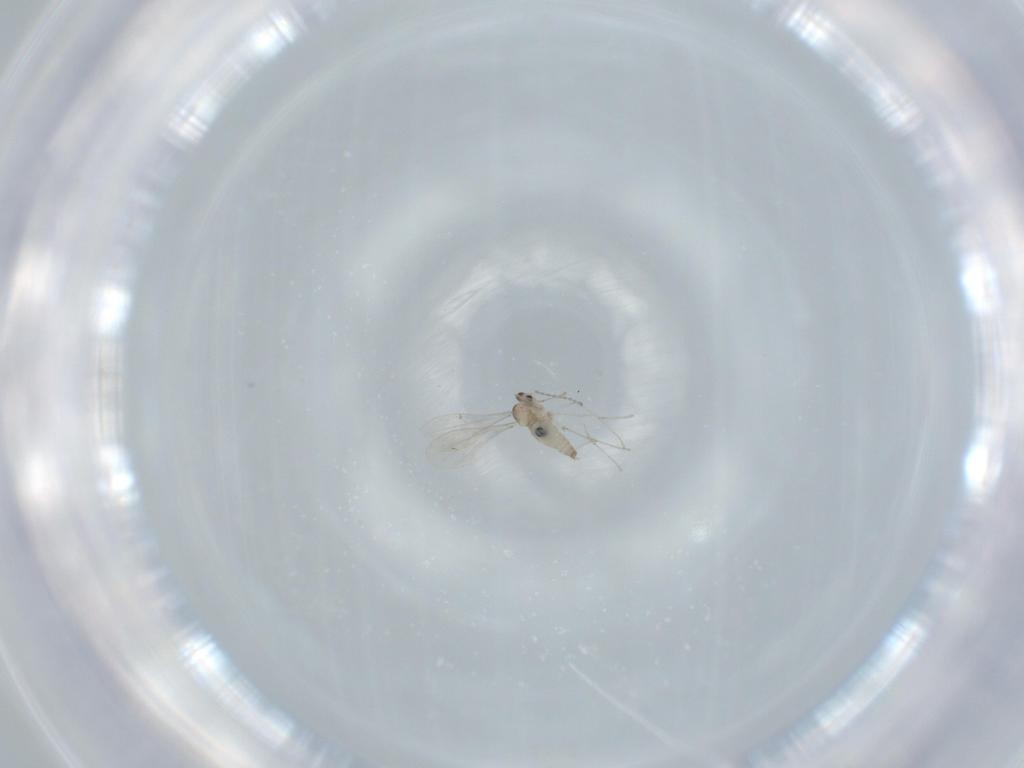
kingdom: Animalia
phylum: Arthropoda
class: Insecta
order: Diptera
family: Cecidomyiidae
